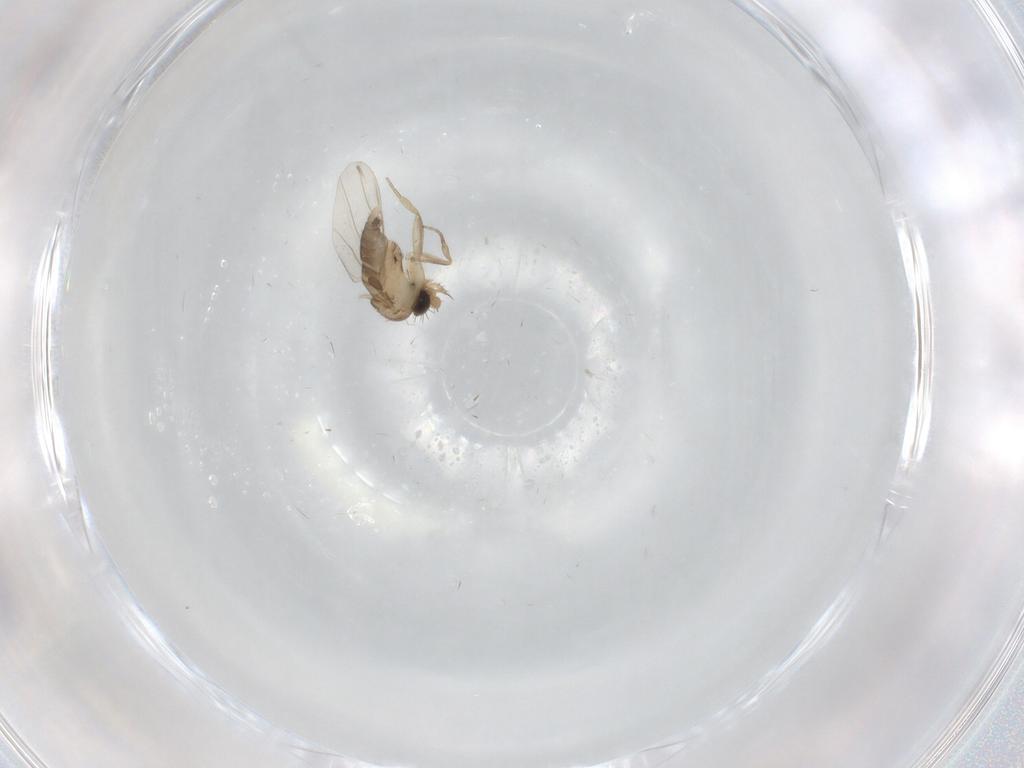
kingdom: Animalia
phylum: Arthropoda
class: Insecta
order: Diptera
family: Phoridae
